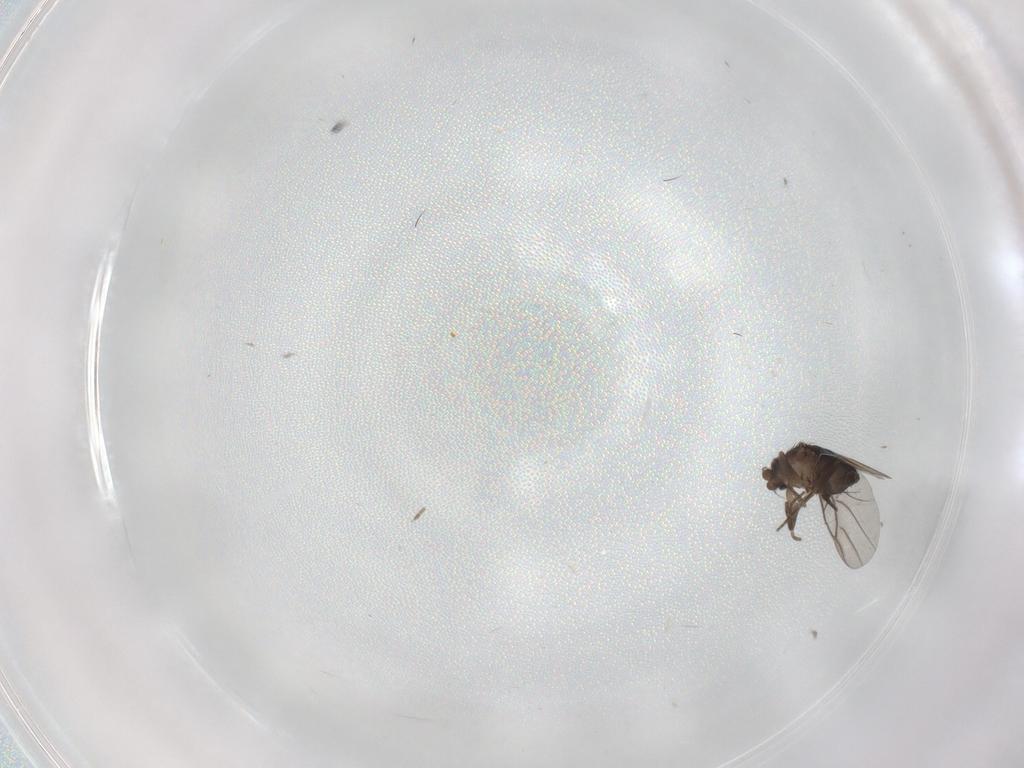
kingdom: Animalia
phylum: Arthropoda
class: Insecta
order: Diptera
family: Cecidomyiidae
